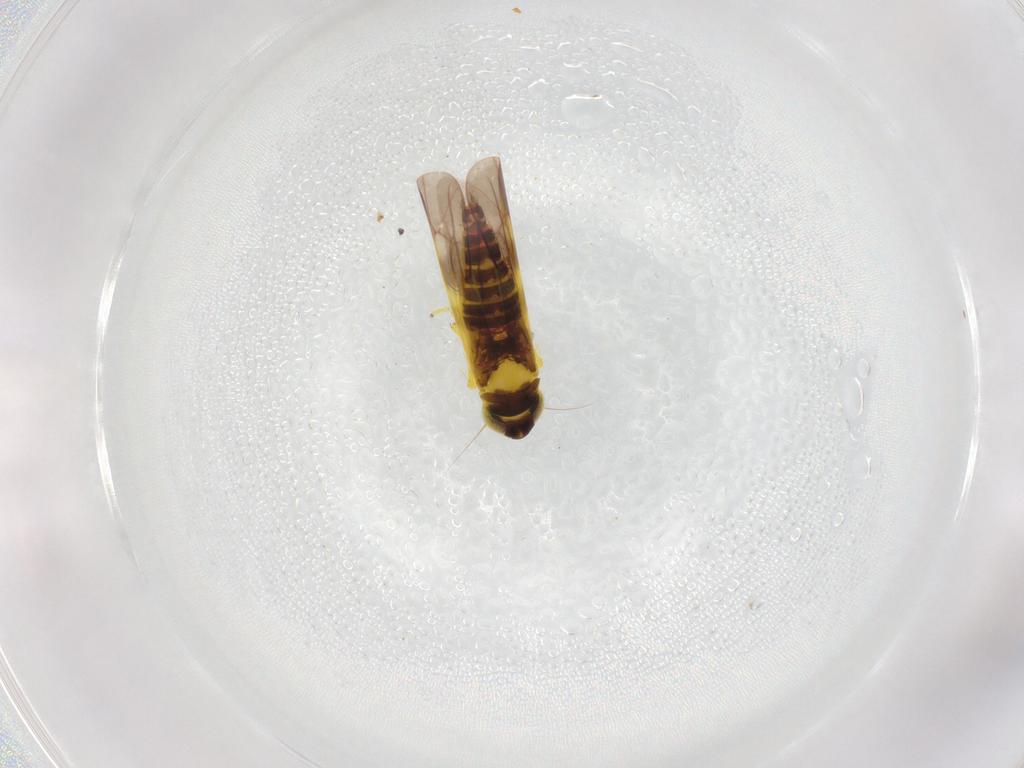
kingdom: Animalia
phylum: Arthropoda
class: Insecta
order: Hemiptera
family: Cicadellidae
